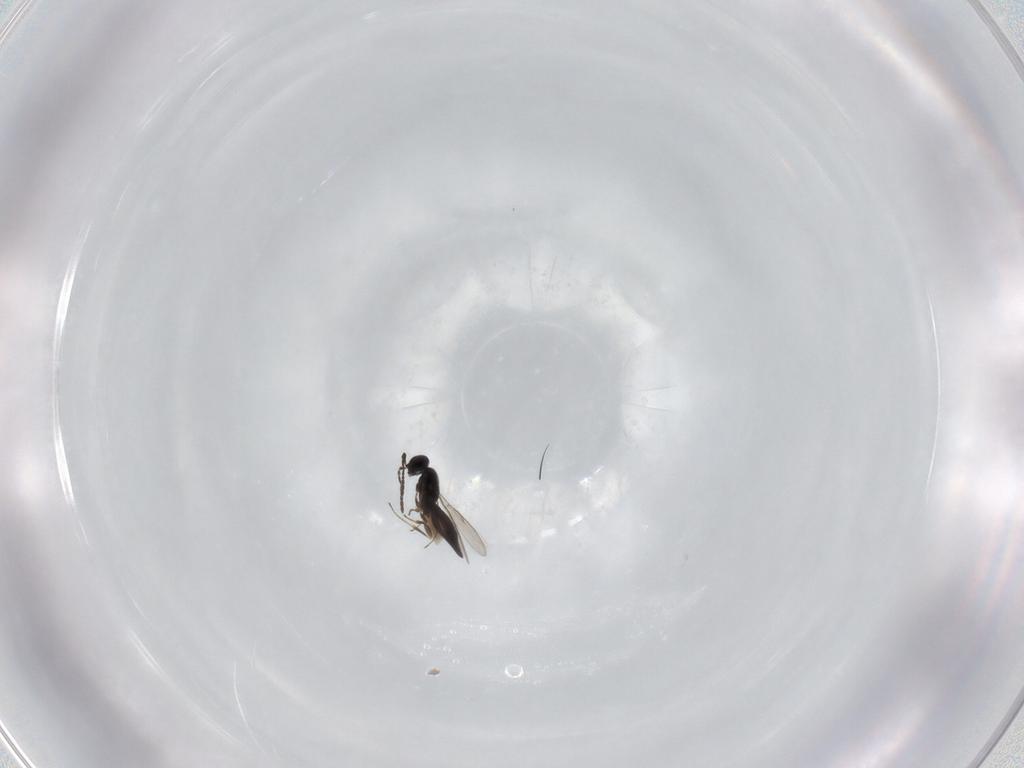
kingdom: Animalia
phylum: Arthropoda
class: Insecta
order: Hymenoptera
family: Scelionidae
